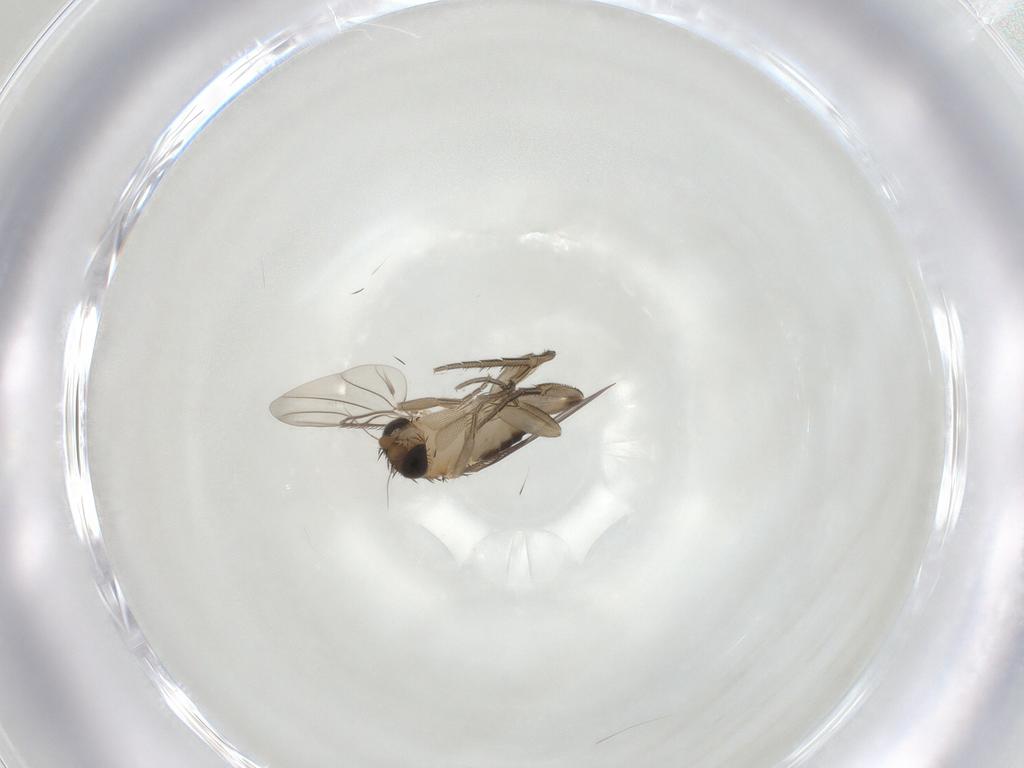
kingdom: Animalia
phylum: Arthropoda
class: Insecta
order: Diptera
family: Phoridae
